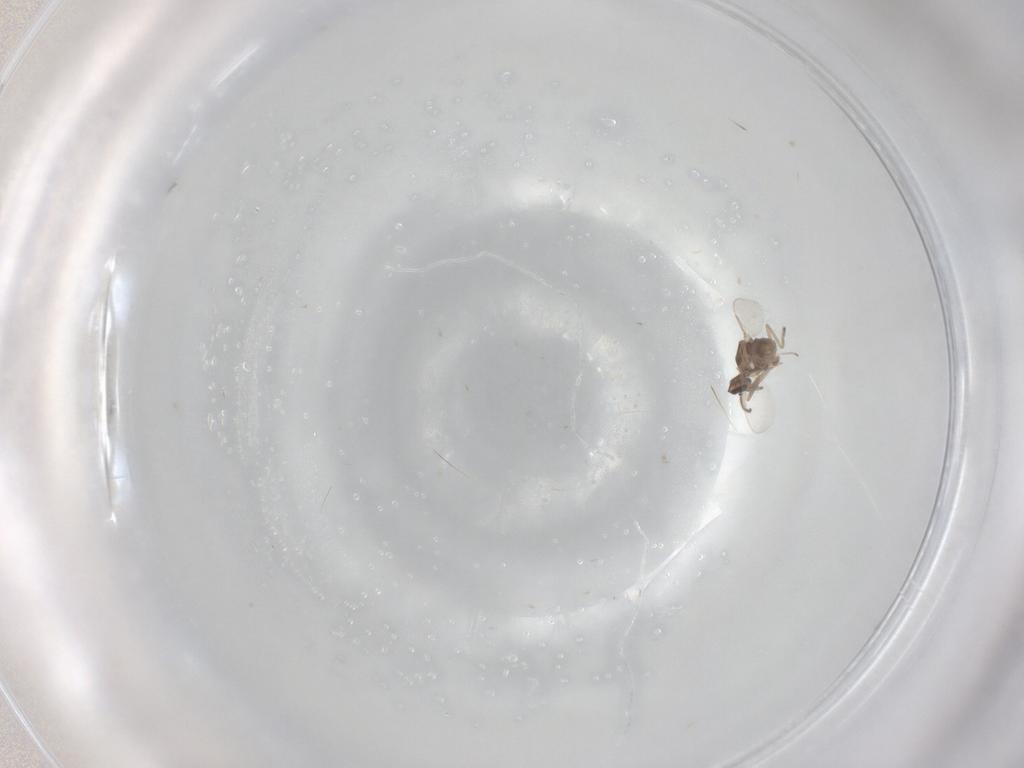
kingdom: Animalia
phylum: Arthropoda
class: Insecta
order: Diptera
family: Ceratopogonidae
